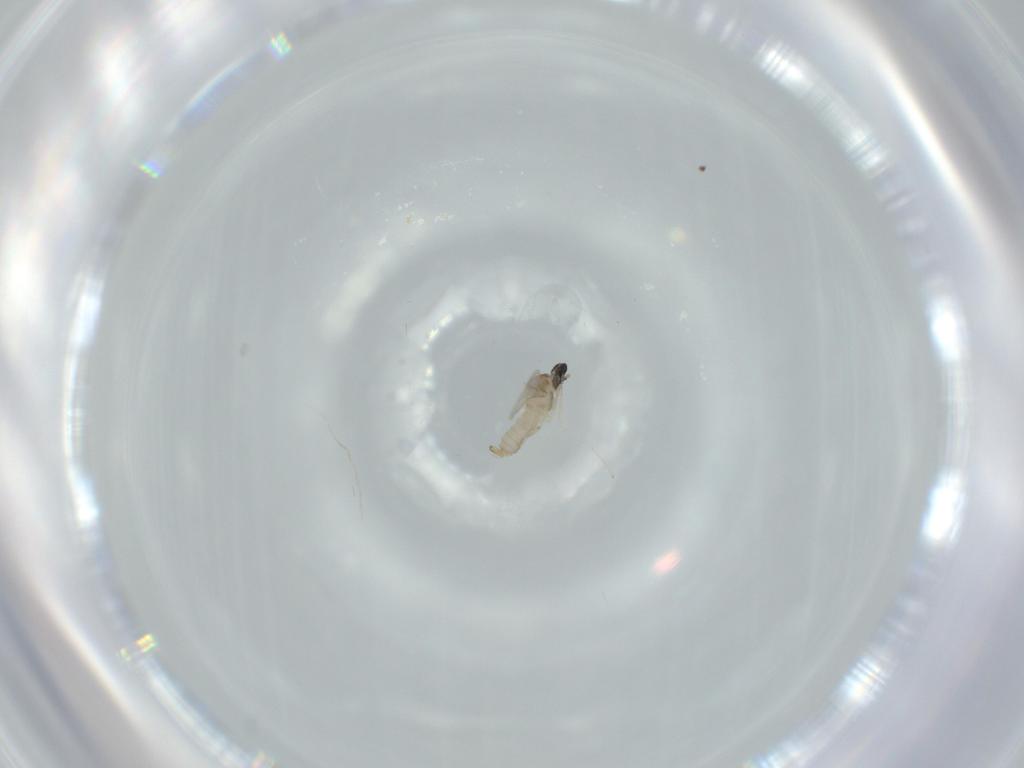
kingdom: Animalia
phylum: Arthropoda
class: Insecta
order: Diptera
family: Cecidomyiidae
